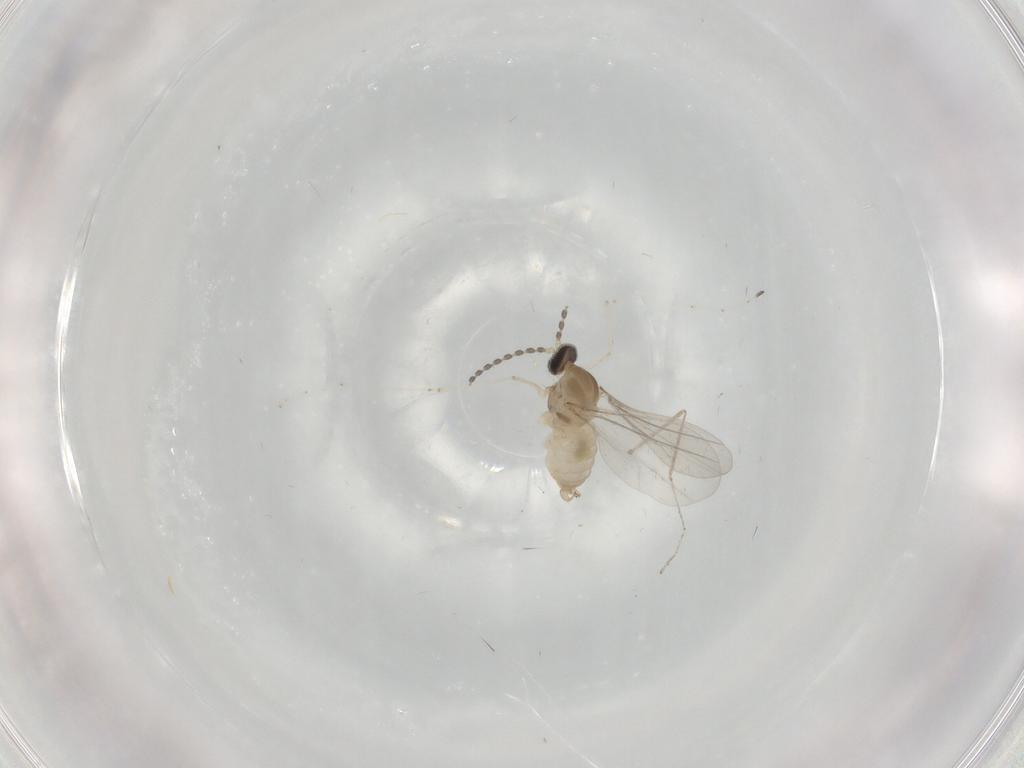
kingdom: Animalia
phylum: Arthropoda
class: Insecta
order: Diptera
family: Cecidomyiidae
